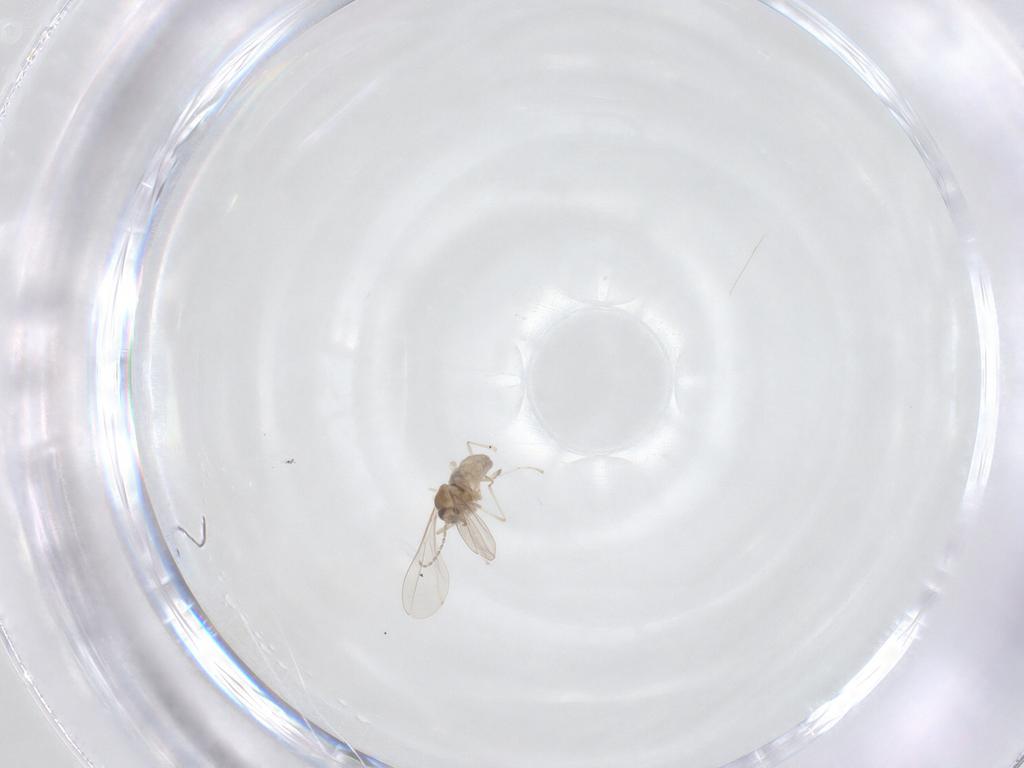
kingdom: Animalia
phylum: Arthropoda
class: Insecta
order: Diptera
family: Cecidomyiidae
